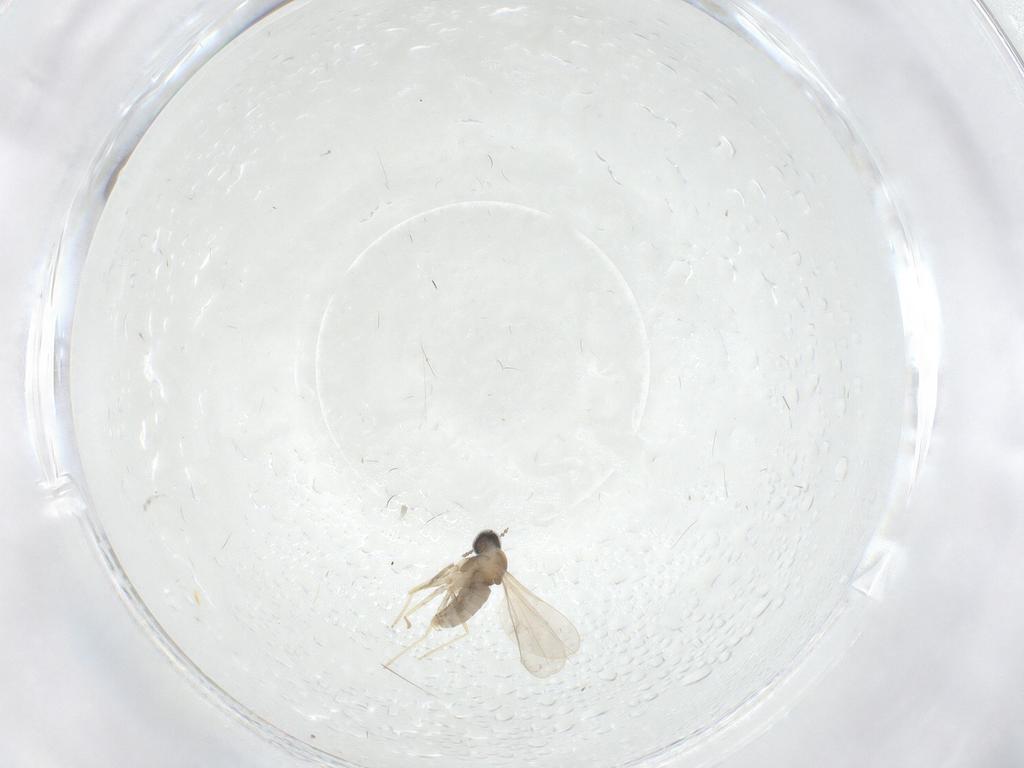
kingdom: Animalia
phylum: Arthropoda
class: Insecta
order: Diptera
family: Cecidomyiidae
